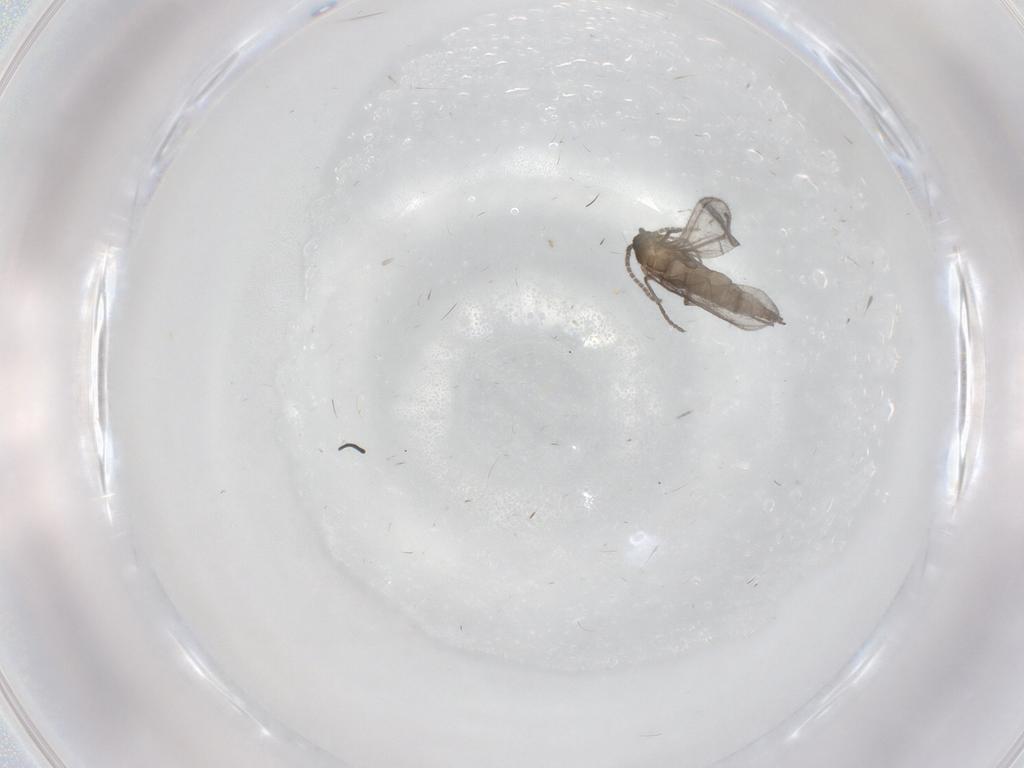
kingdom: Animalia
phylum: Arthropoda
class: Insecta
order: Diptera
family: Sciaridae
